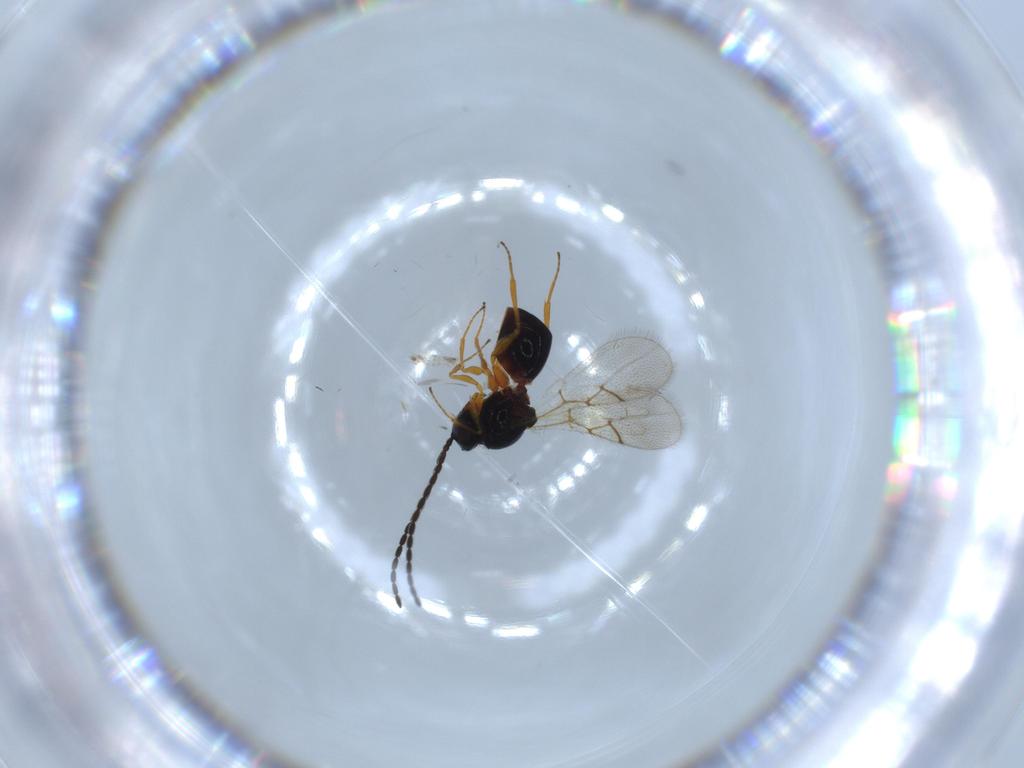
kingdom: Animalia
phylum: Arthropoda
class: Insecta
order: Hymenoptera
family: Figitidae
